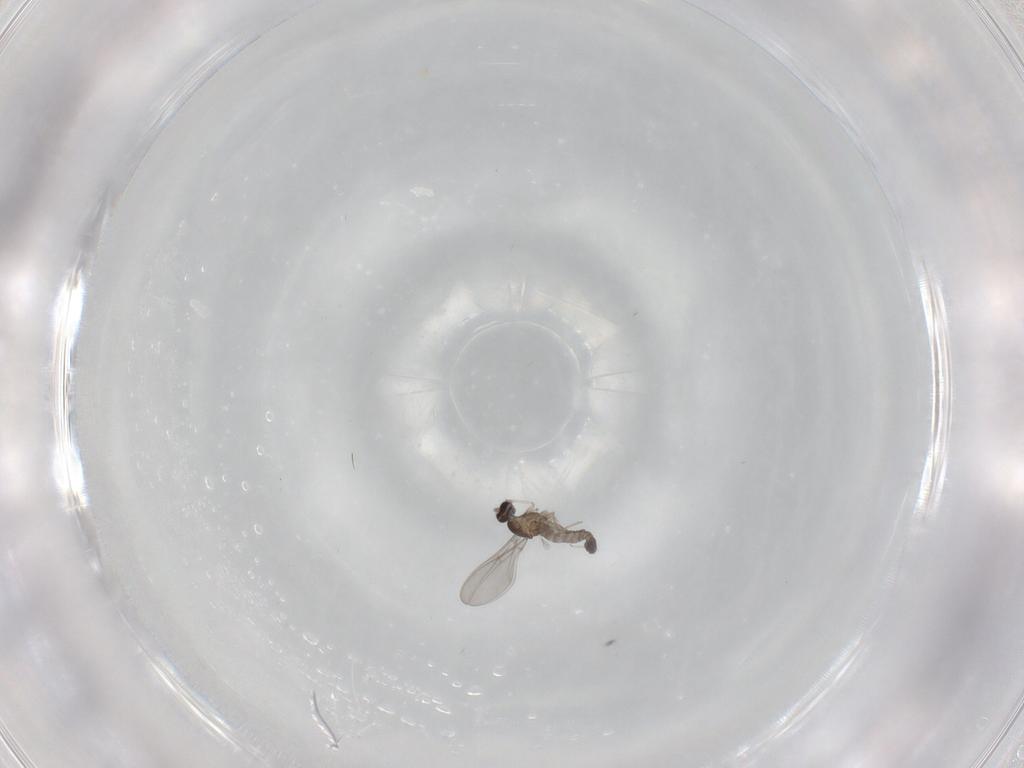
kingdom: Animalia
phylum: Arthropoda
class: Insecta
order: Diptera
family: Cecidomyiidae
